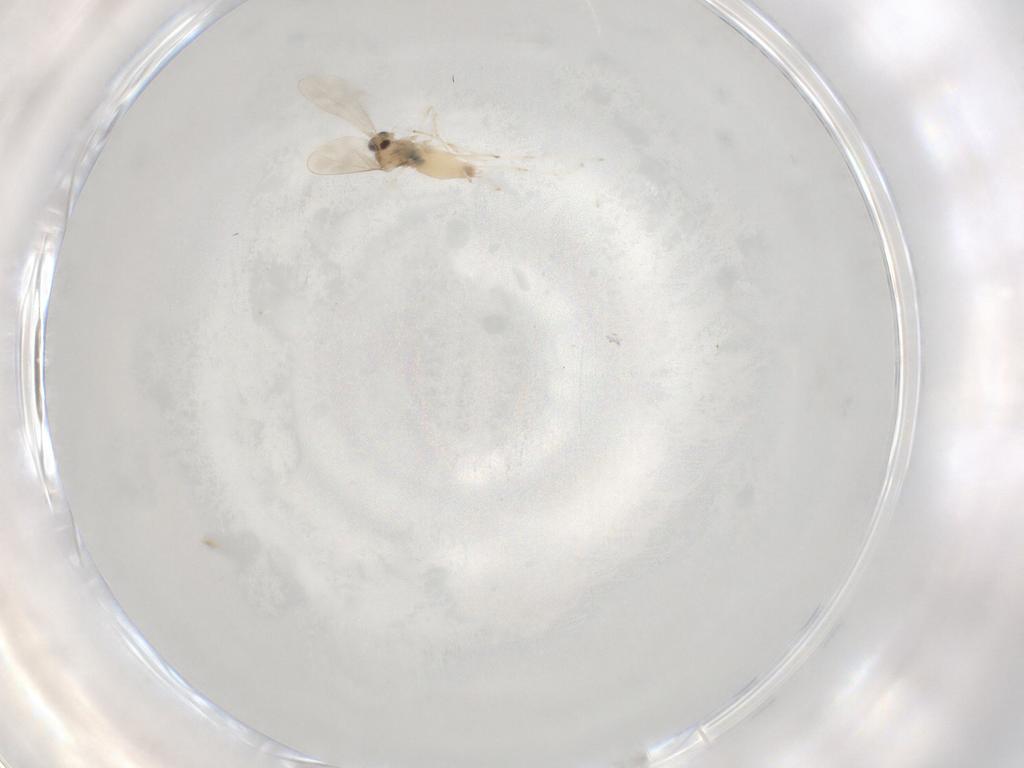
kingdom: Animalia
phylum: Arthropoda
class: Insecta
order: Diptera
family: Cecidomyiidae
